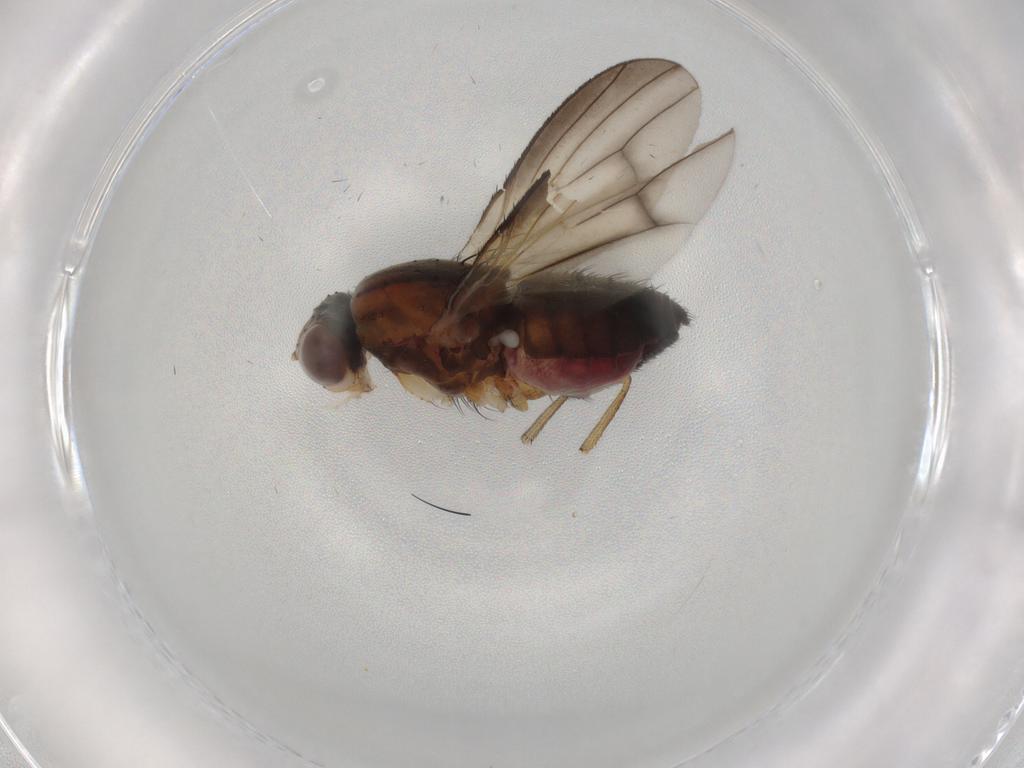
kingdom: Animalia
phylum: Arthropoda
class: Insecta
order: Diptera
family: Heleomyzidae
